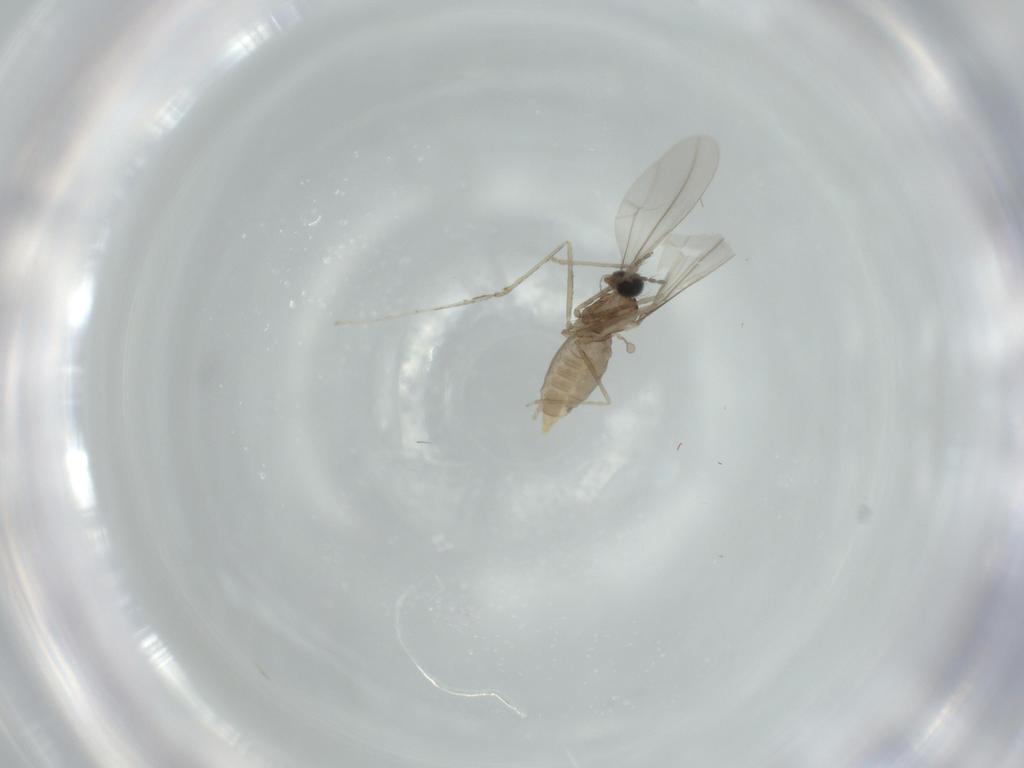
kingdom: Animalia
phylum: Arthropoda
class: Insecta
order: Diptera
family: Cecidomyiidae
